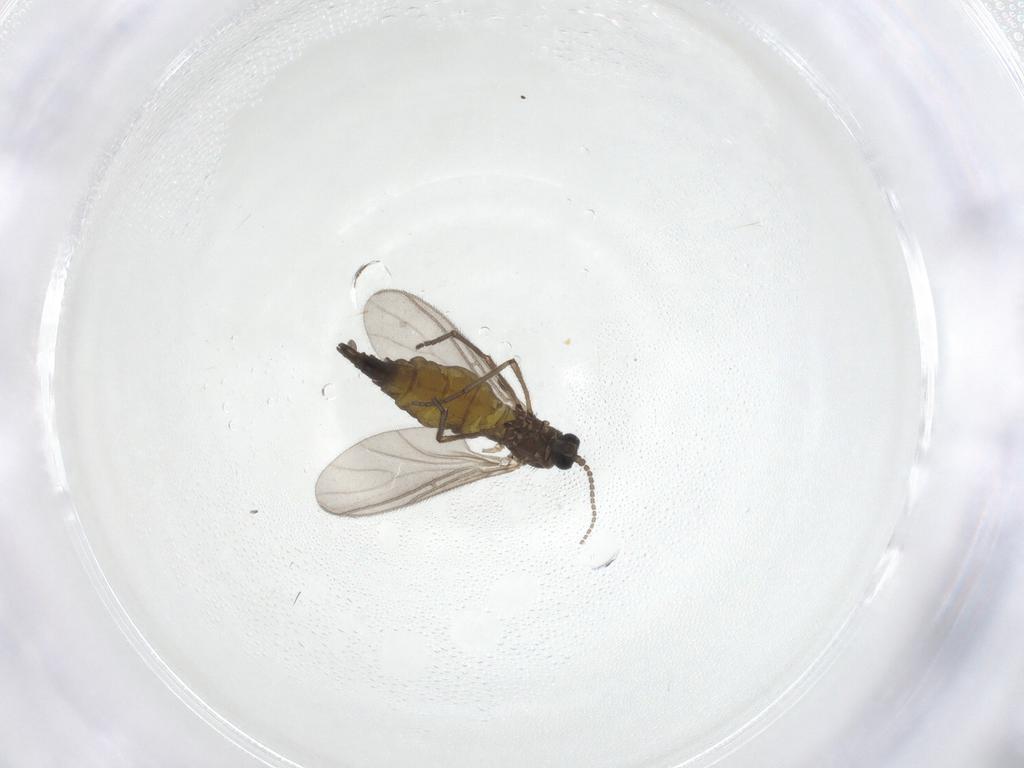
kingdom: Animalia
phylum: Arthropoda
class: Insecta
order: Diptera
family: Sciaridae
